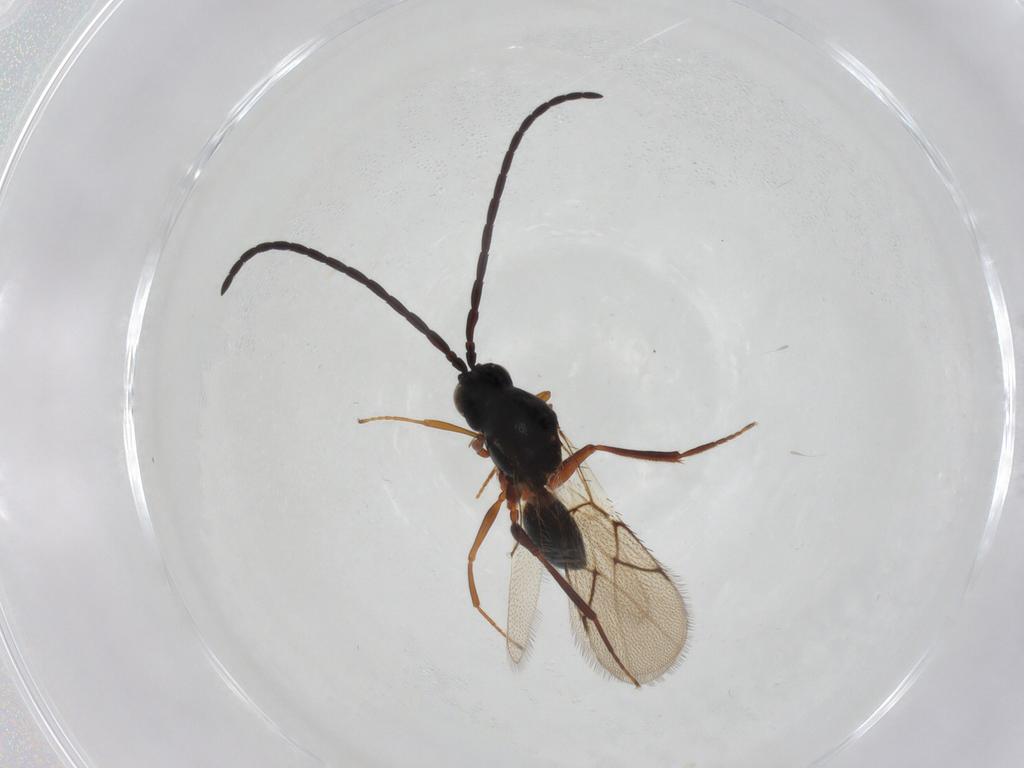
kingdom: Animalia
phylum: Arthropoda
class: Insecta
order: Hymenoptera
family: Figitidae
